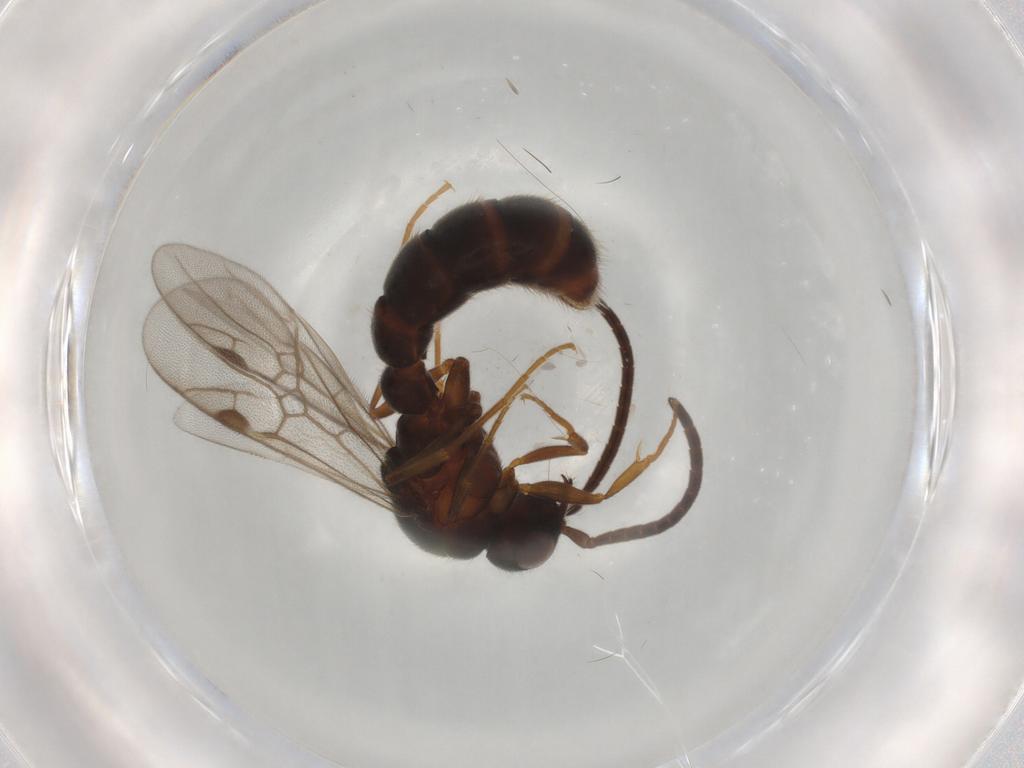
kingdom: Animalia
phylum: Arthropoda
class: Insecta
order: Hymenoptera
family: Formicidae
